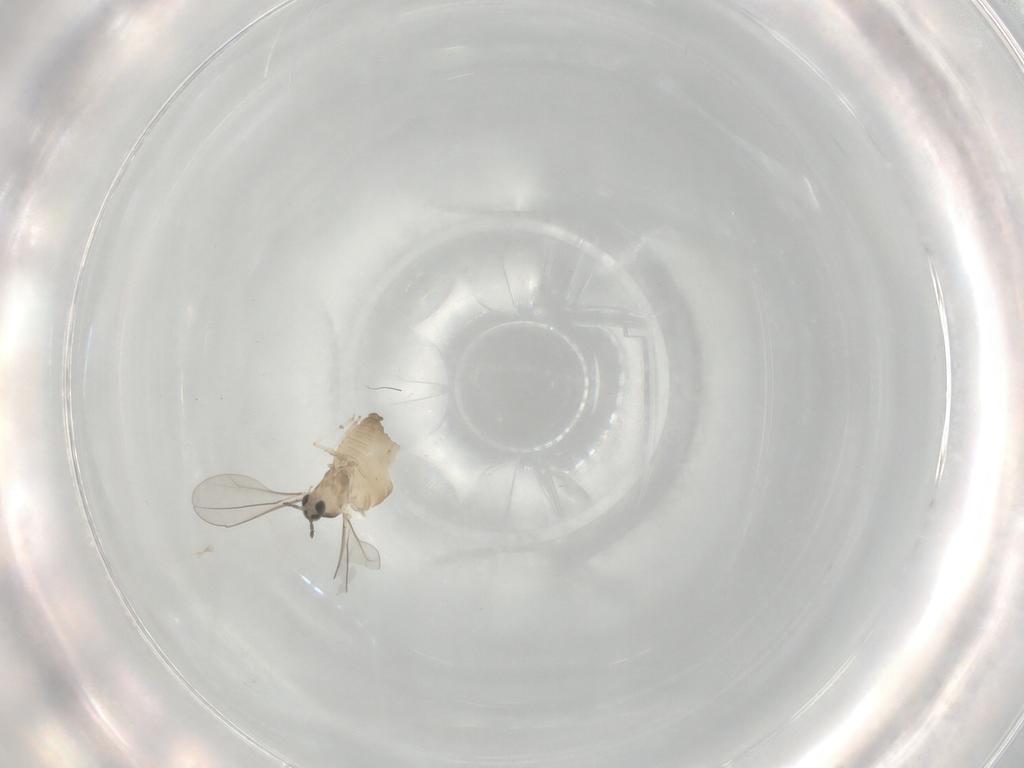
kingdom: Animalia
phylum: Arthropoda
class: Insecta
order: Diptera
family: Cecidomyiidae
